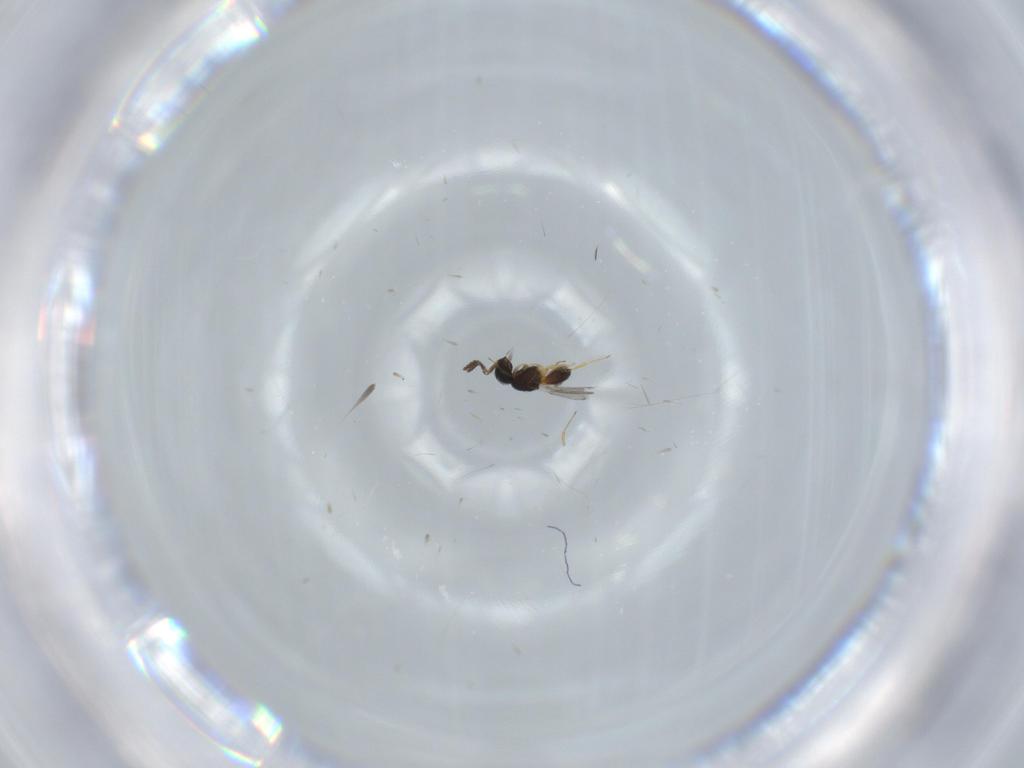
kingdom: Animalia
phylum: Arthropoda
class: Insecta
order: Hymenoptera
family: Scelionidae
